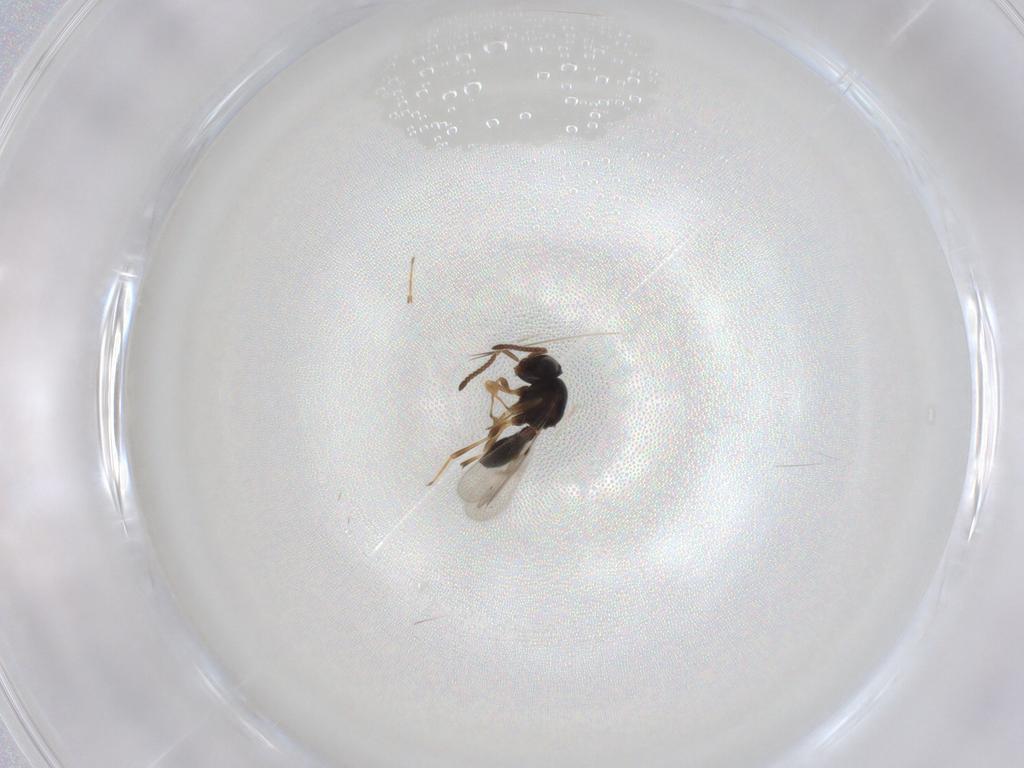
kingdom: Animalia
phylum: Arthropoda
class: Insecta
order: Hymenoptera
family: Scelionidae
